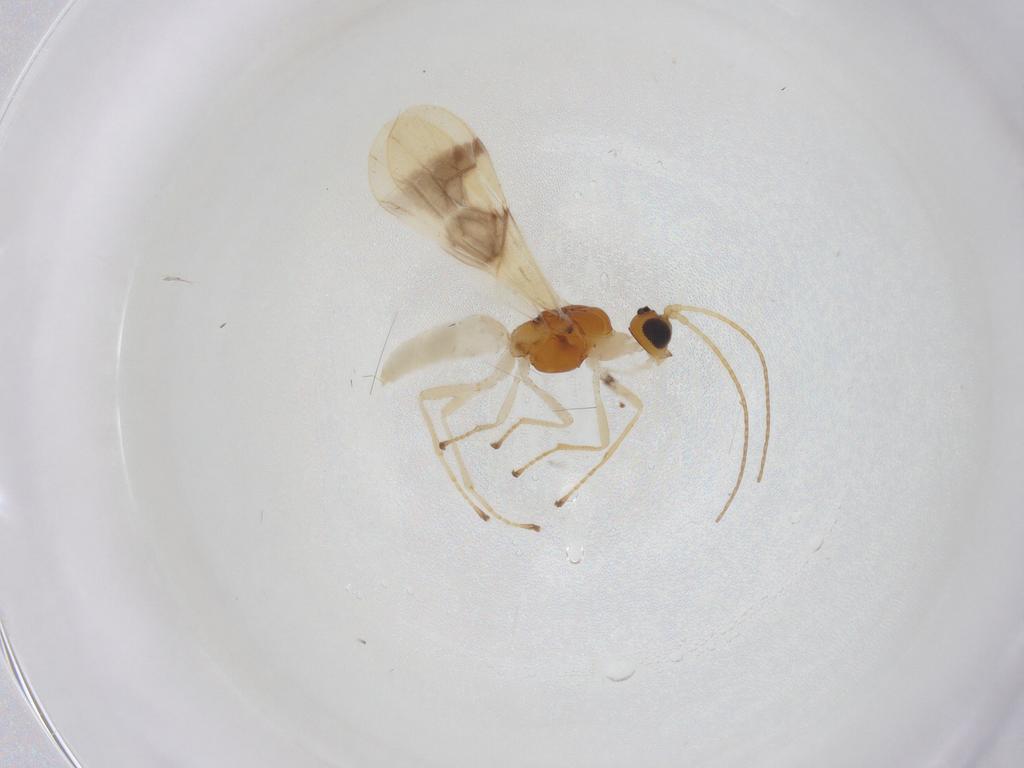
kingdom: Animalia
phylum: Arthropoda
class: Insecta
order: Hymenoptera
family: Braconidae
